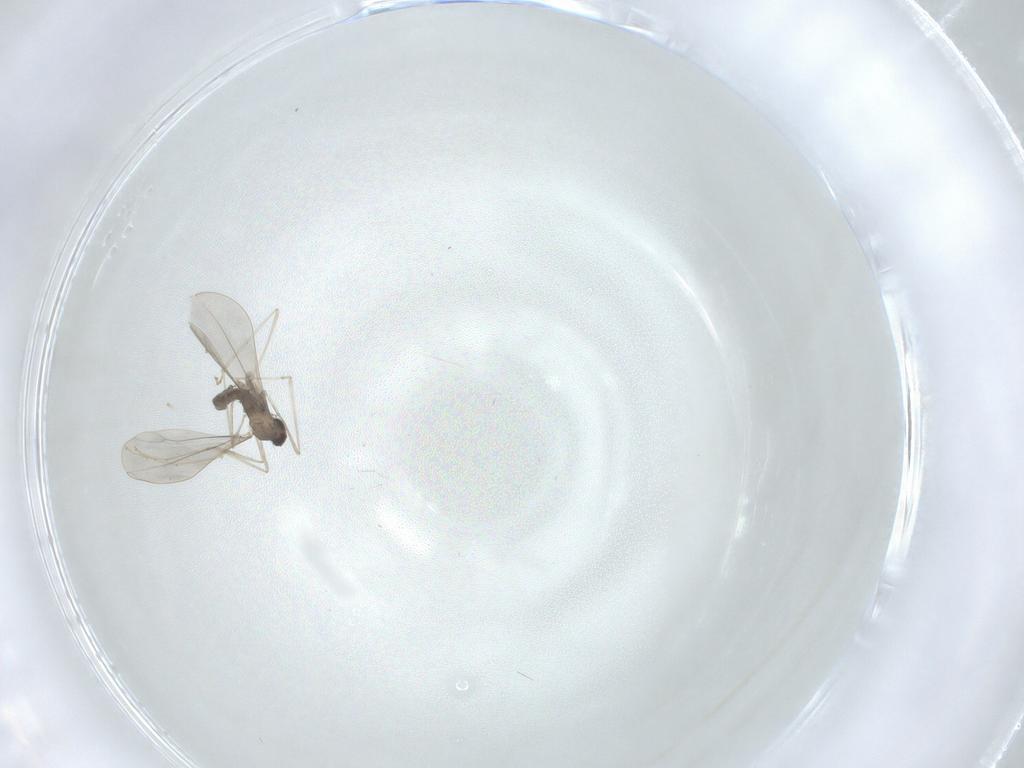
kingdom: Animalia
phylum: Arthropoda
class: Insecta
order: Diptera
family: Cecidomyiidae
